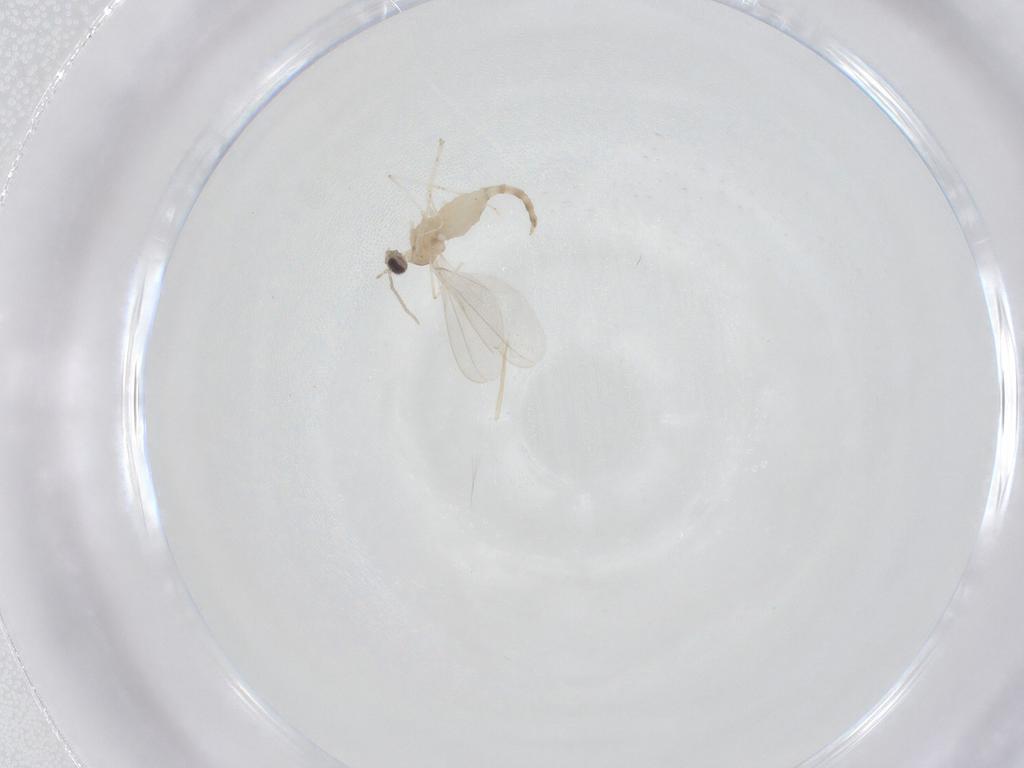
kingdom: Animalia
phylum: Arthropoda
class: Insecta
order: Diptera
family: Cecidomyiidae
